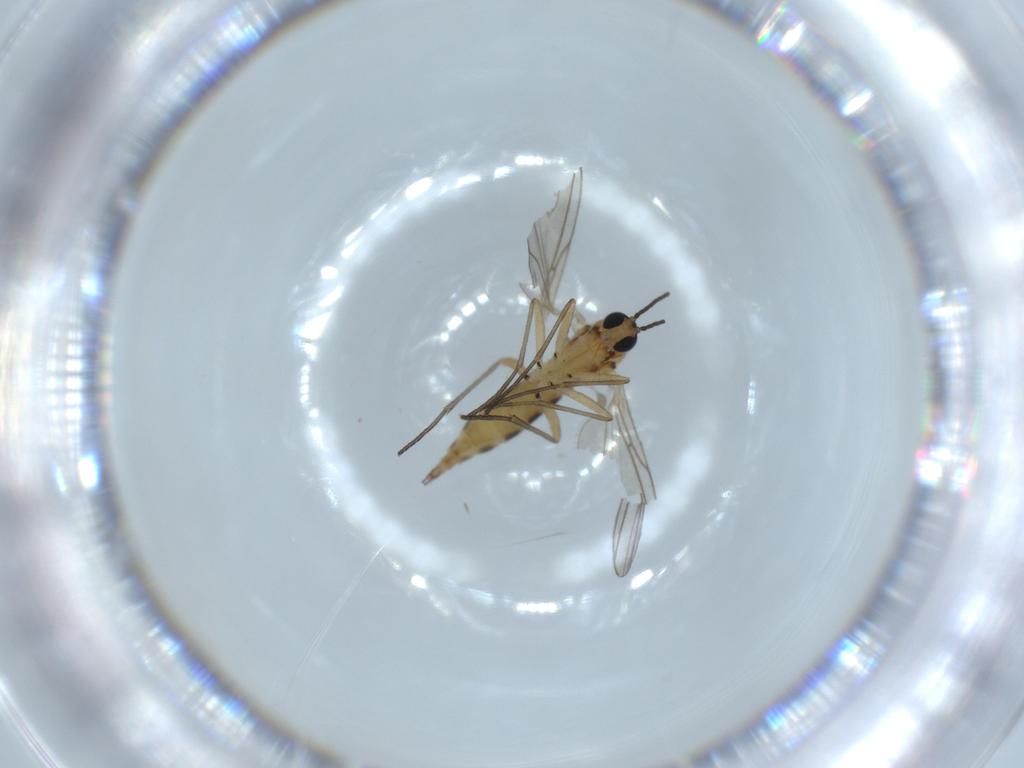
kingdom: Animalia
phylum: Arthropoda
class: Insecta
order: Diptera
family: Sciaridae
